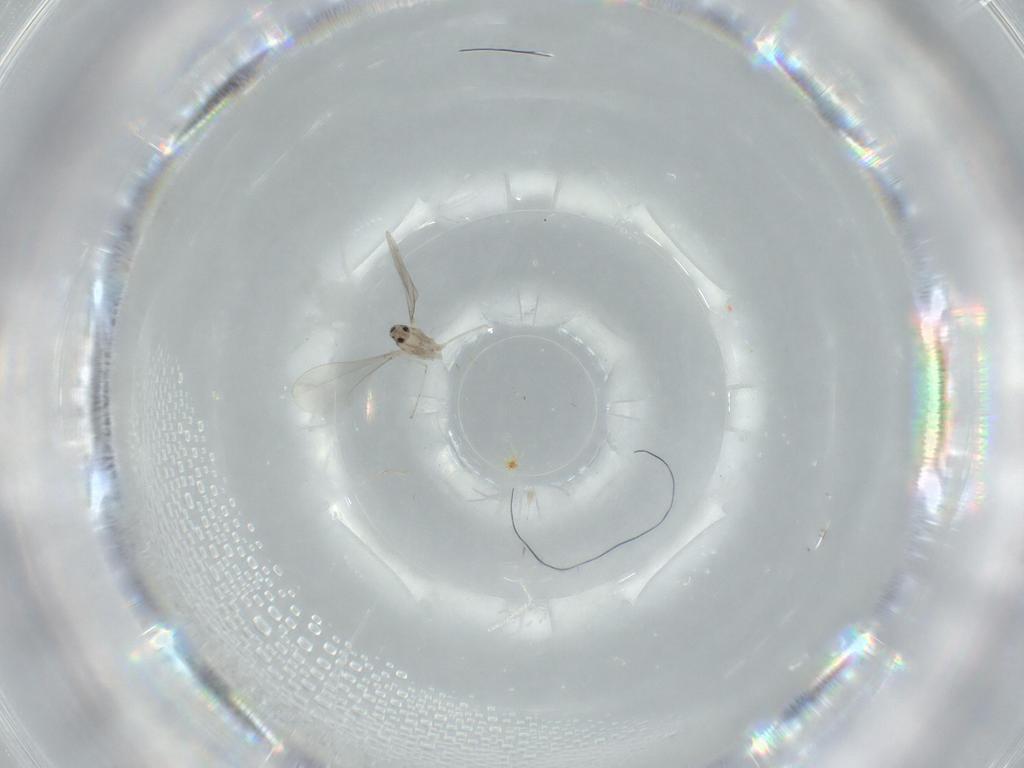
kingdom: Animalia
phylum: Arthropoda
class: Insecta
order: Diptera
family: Cecidomyiidae
